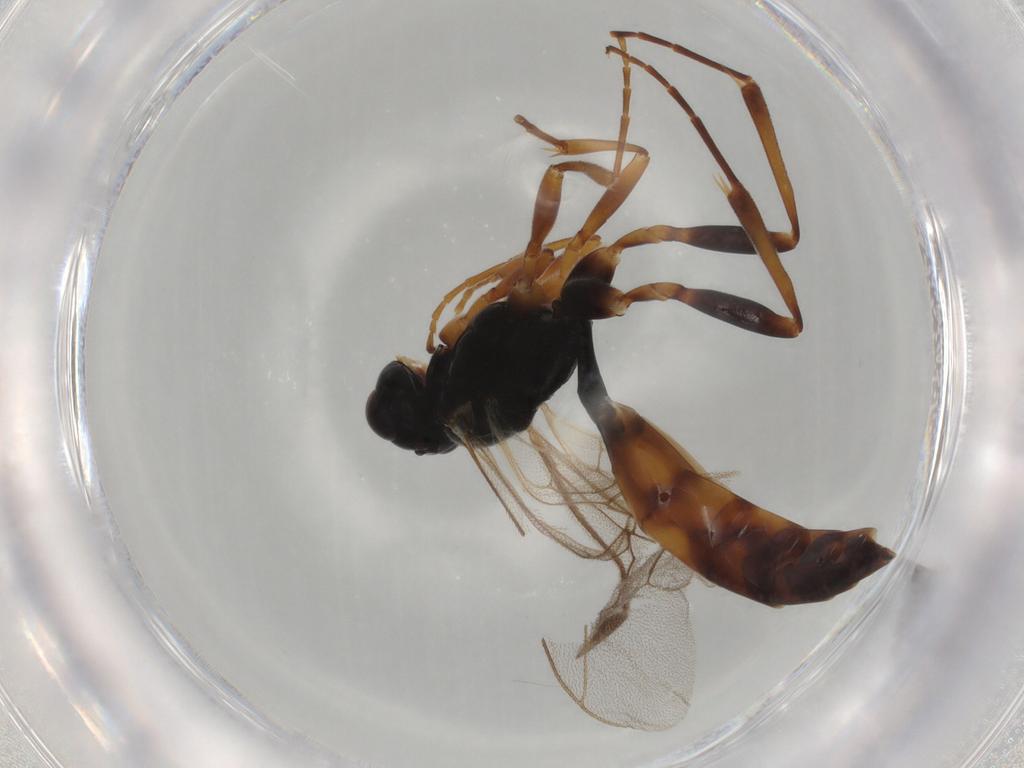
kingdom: Animalia
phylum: Arthropoda
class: Insecta
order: Hymenoptera
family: Ichneumonidae
